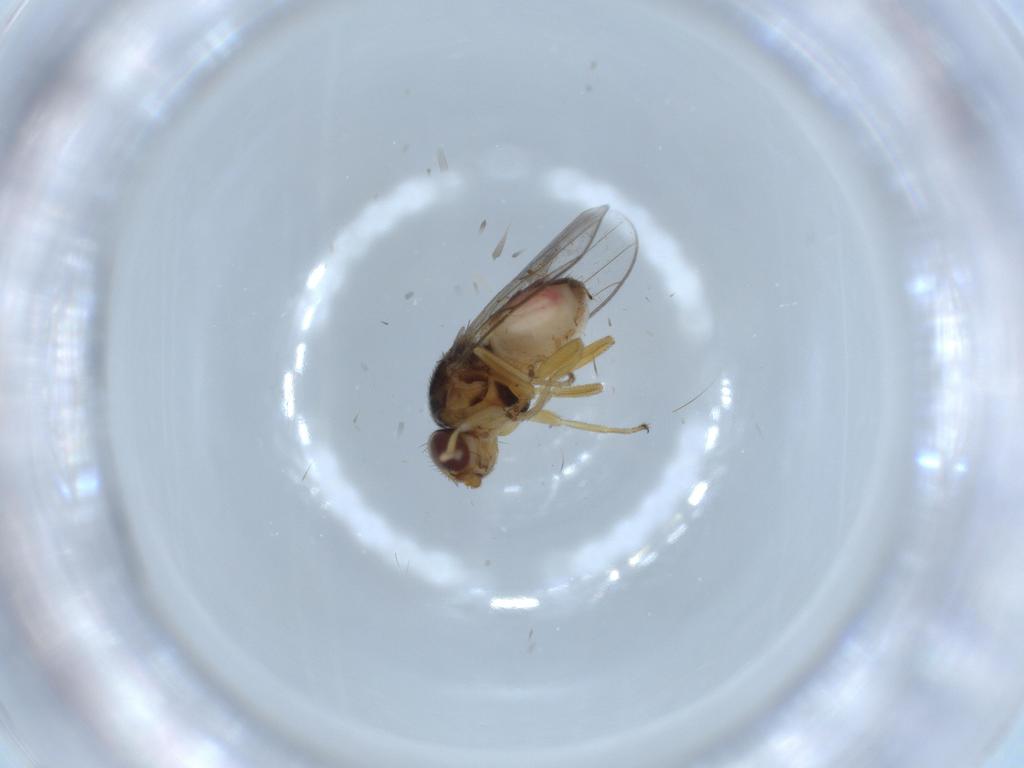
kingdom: Animalia
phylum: Arthropoda
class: Insecta
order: Diptera
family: Chloropidae
